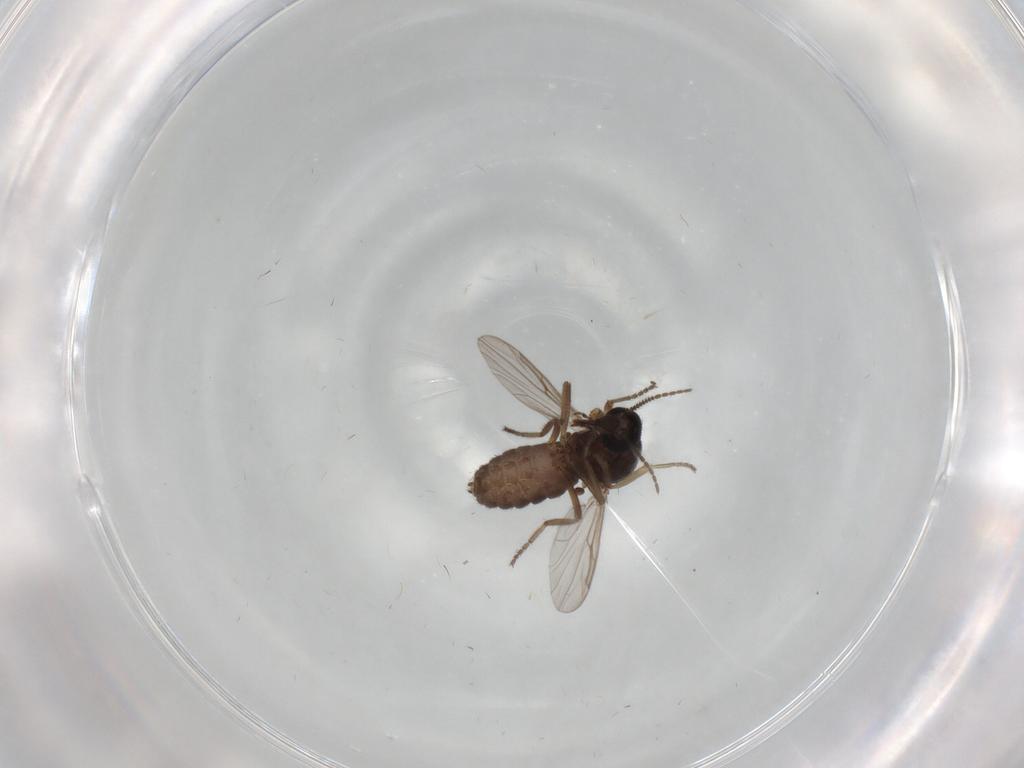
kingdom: Animalia
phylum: Arthropoda
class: Insecta
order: Diptera
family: Ceratopogonidae
